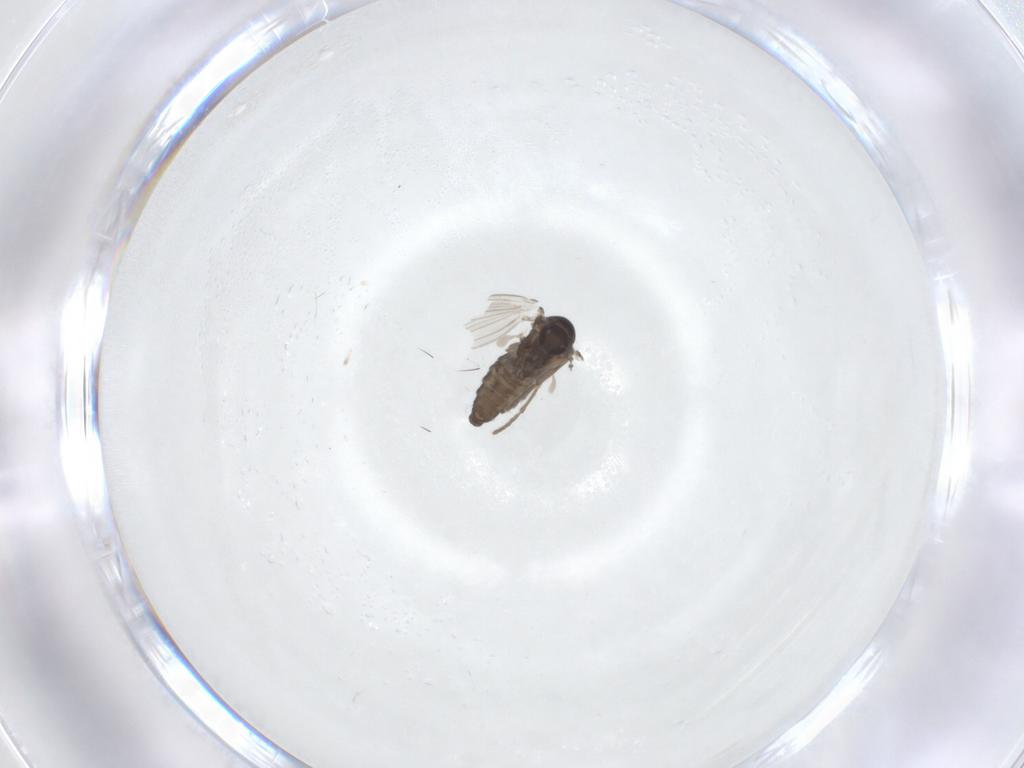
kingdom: Animalia
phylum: Arthropoda
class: Insecta
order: Diptera
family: Psychodidae
